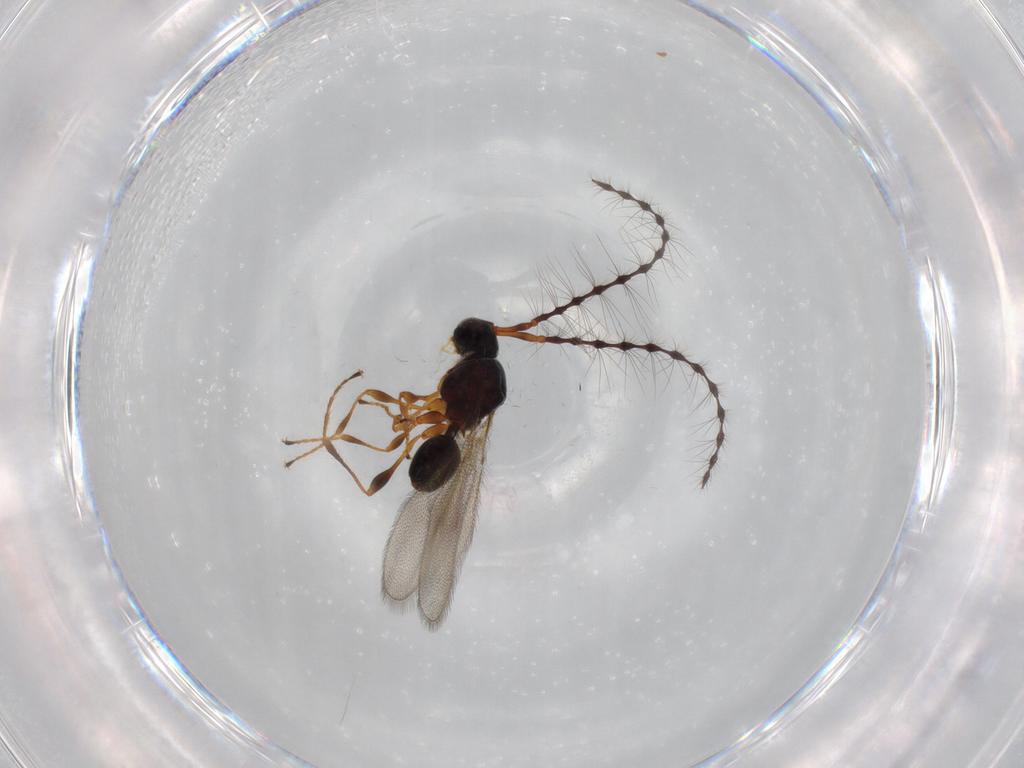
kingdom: Animalia
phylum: Arthropoda
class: Insecta
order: Hymenoptera
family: Diapriidae
